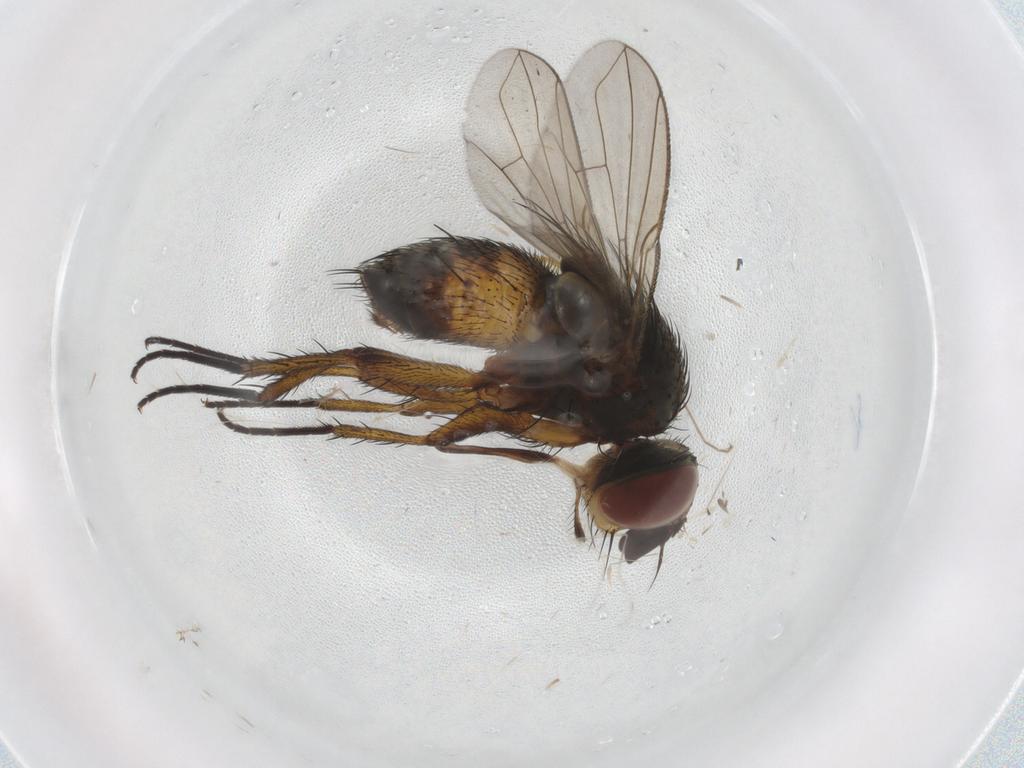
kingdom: Animalia
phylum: Arthropoda
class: Insecta
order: Diptera
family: Chironomidae
